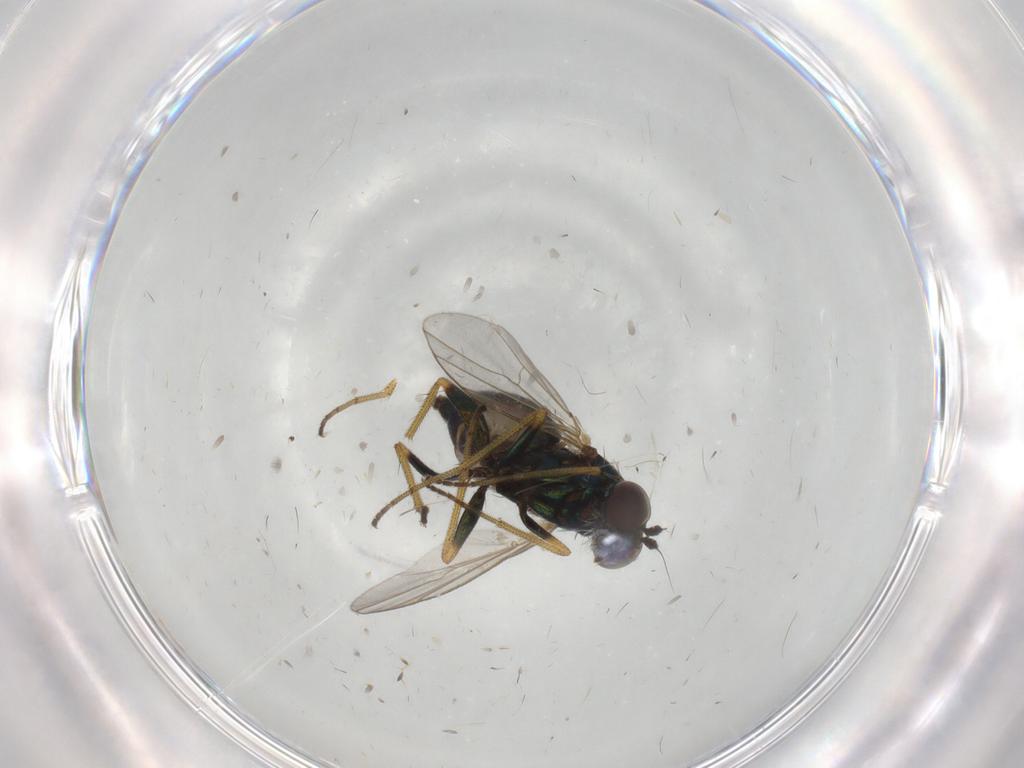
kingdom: Animalia
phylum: Arthropoda
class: Insecta
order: Diptera
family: Dolichopodidae
